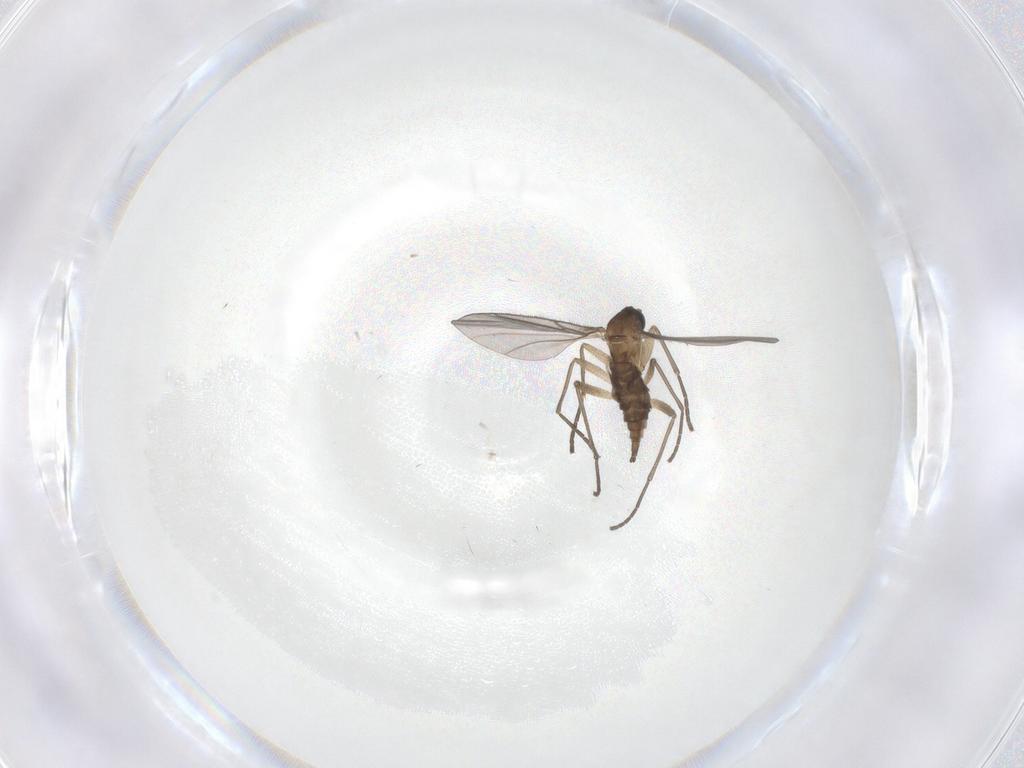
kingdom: Animalia
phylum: Arthropoda
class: Insecta
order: Diptera
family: Sciaridae
